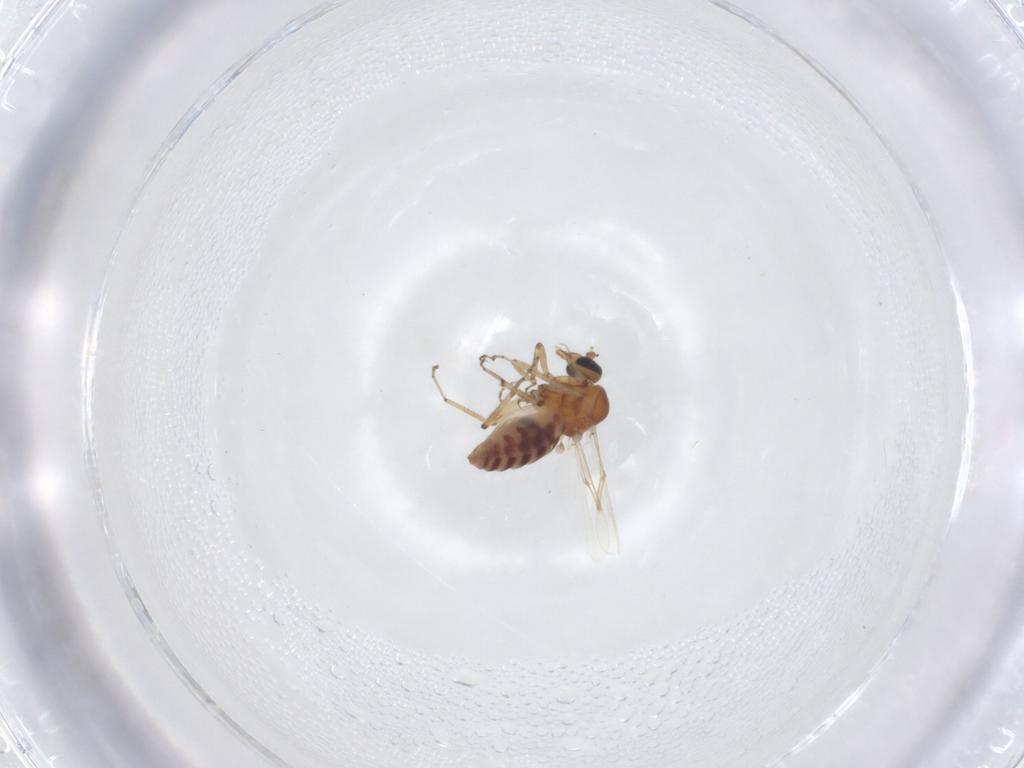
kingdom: Animalia
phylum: Arthropoda
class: Insecta
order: Diptera
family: Ceratopogonidae
